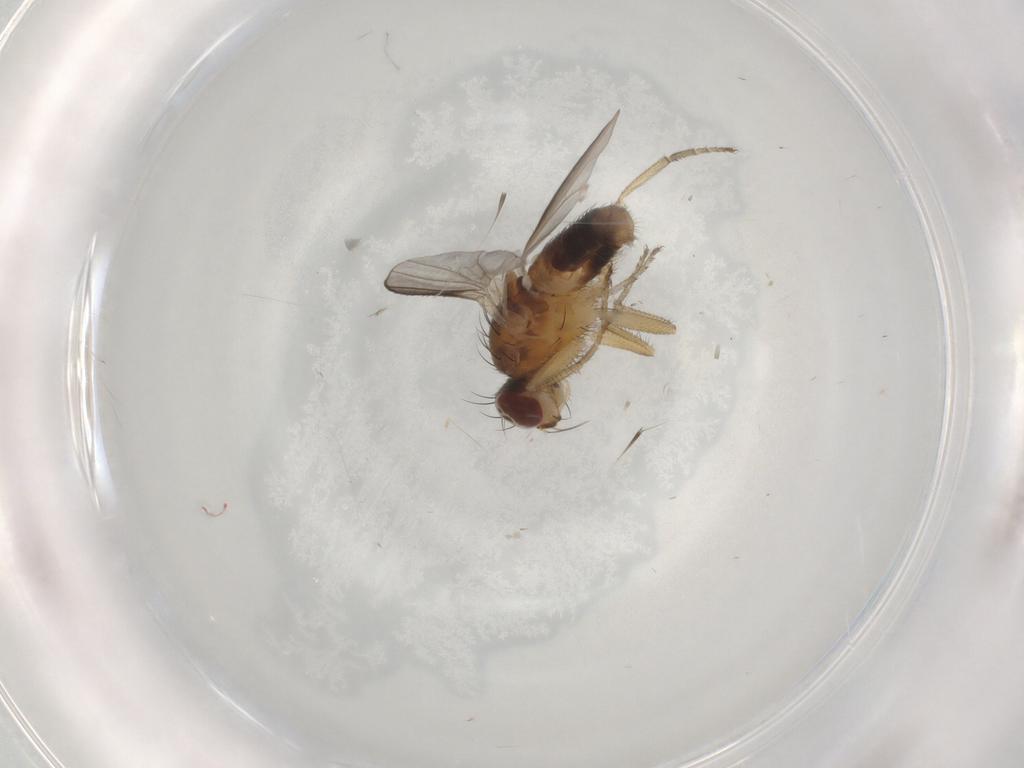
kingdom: Animalia
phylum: Arthropoda
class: Insecta
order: Diptera
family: Heleomyzidae
